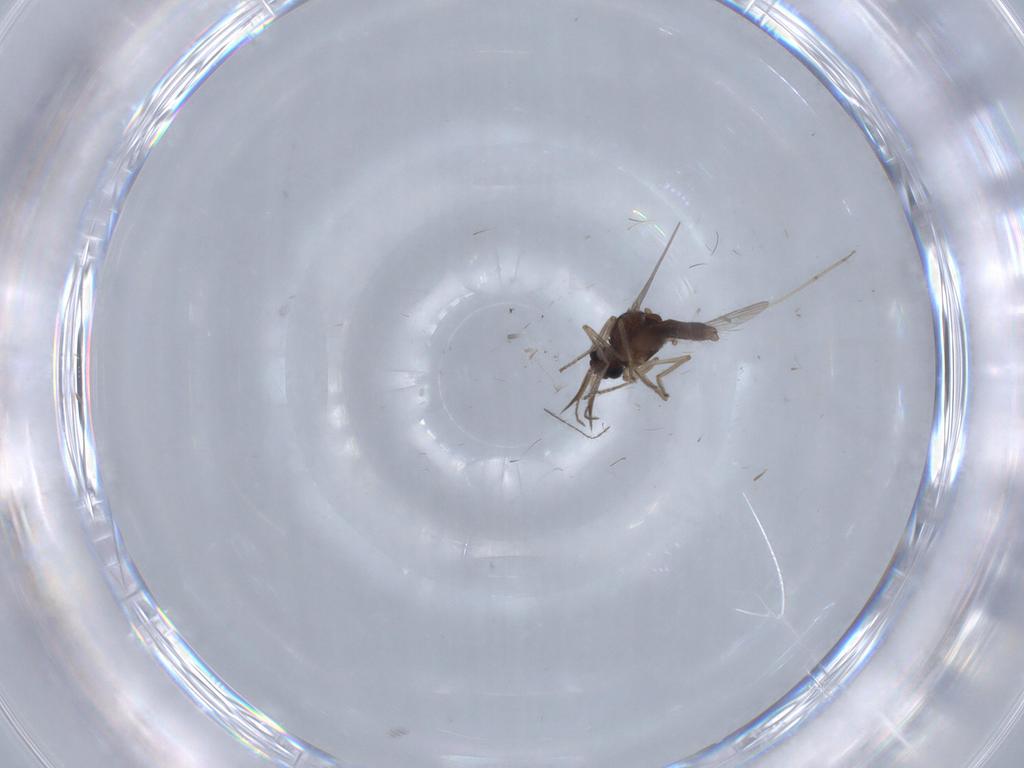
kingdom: Animalia
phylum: Arthropoda
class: Insecta
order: Diptera
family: Ceratopogonidae
